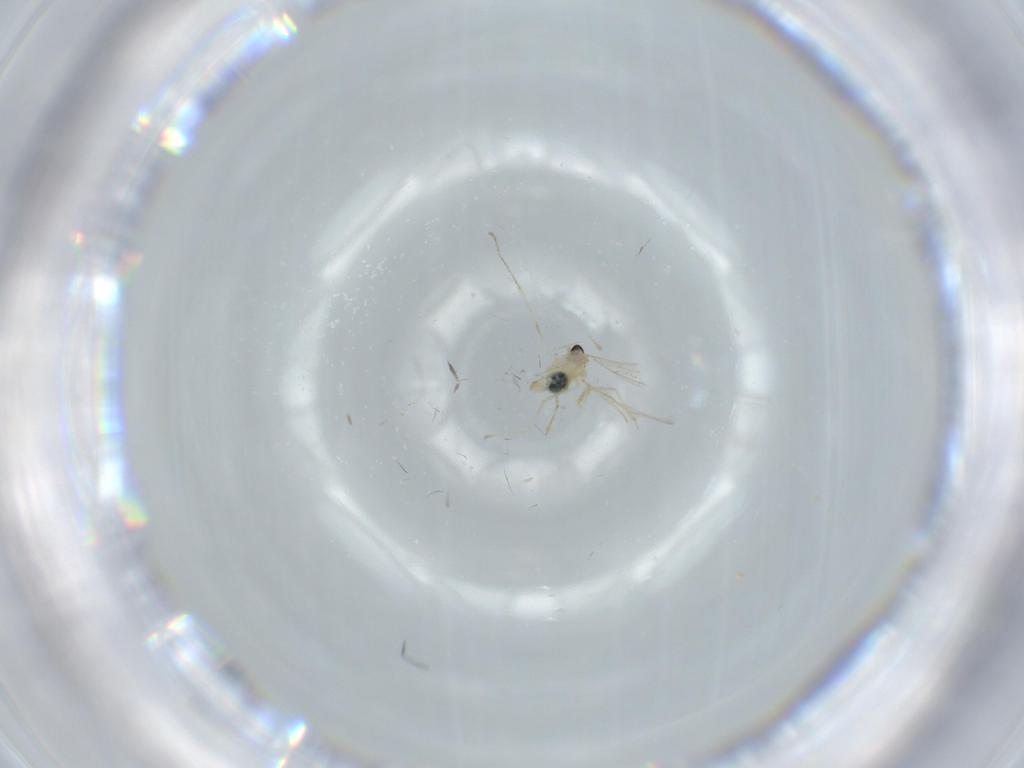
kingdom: Animalia
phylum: Arthropoda
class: Insecta
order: Diptera
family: Cecidomyiidae
